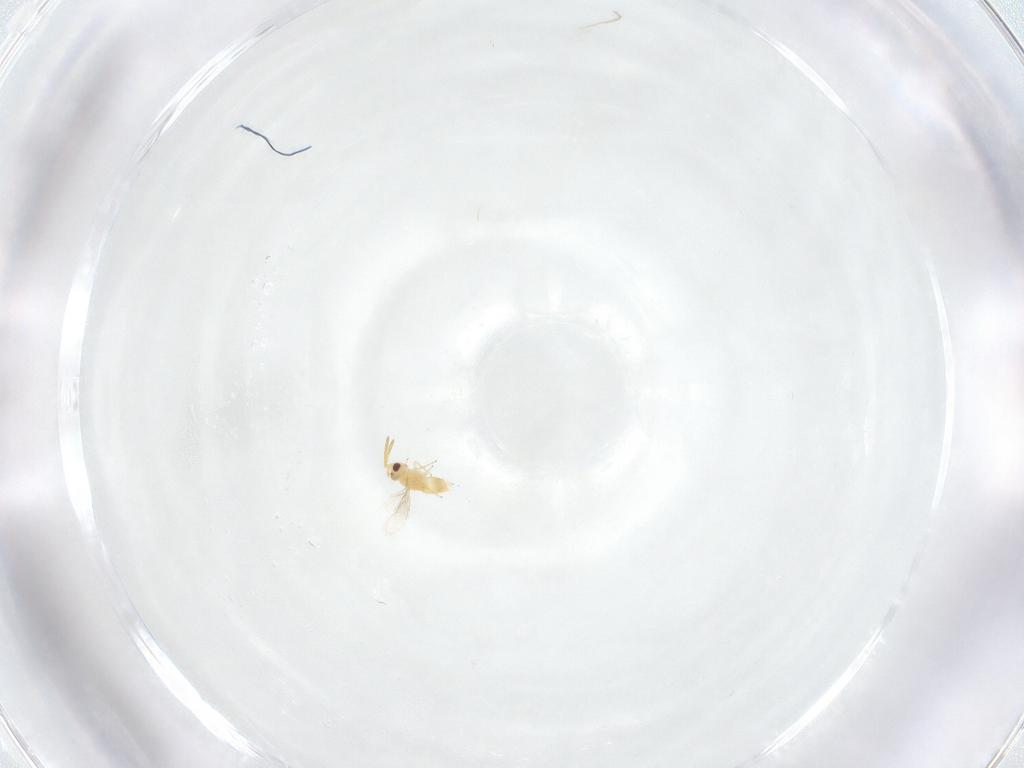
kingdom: Animalia
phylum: Arthropoda
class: Insecta
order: Hymenoptera
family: Aphelinidae
